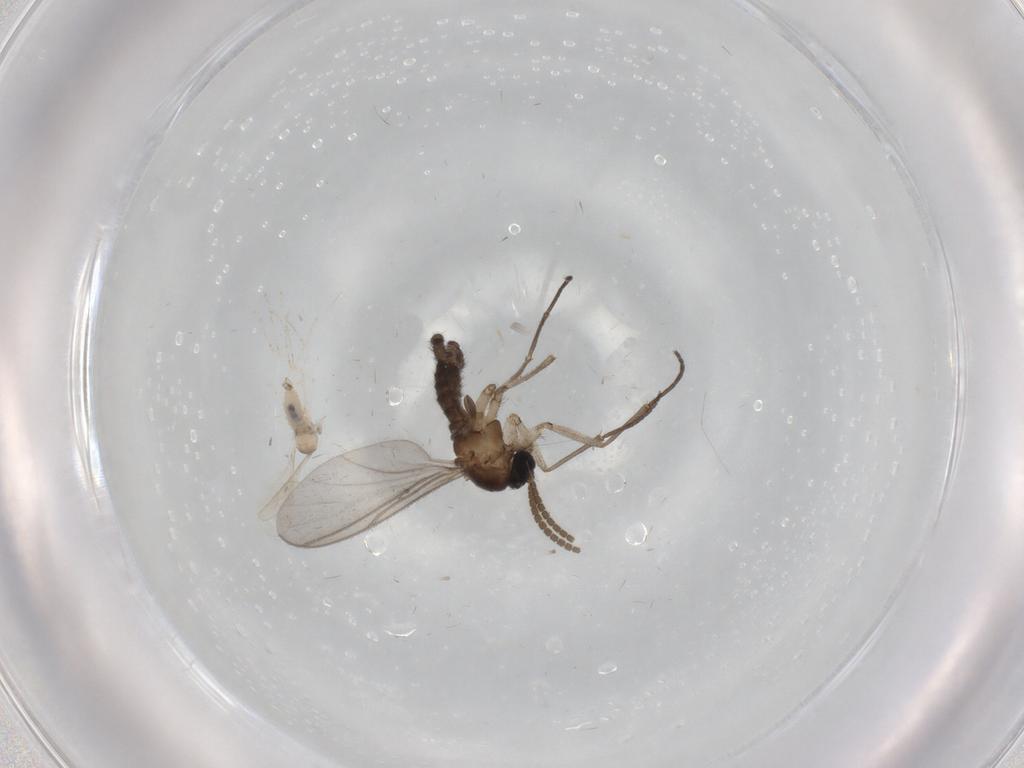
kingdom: Animalia
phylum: Arthropoda
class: Insecta
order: Diptera
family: Cecidomyiidae
